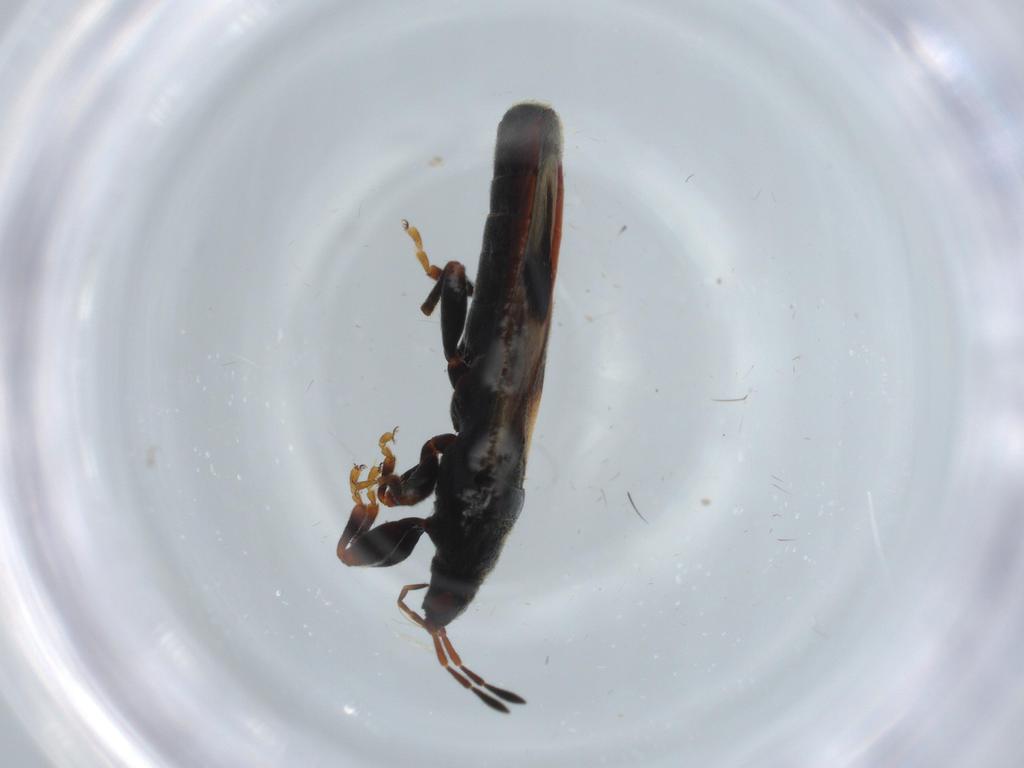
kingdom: Animalia
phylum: Arthropoda
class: Insecta
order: Hemiptera
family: Blissidae
